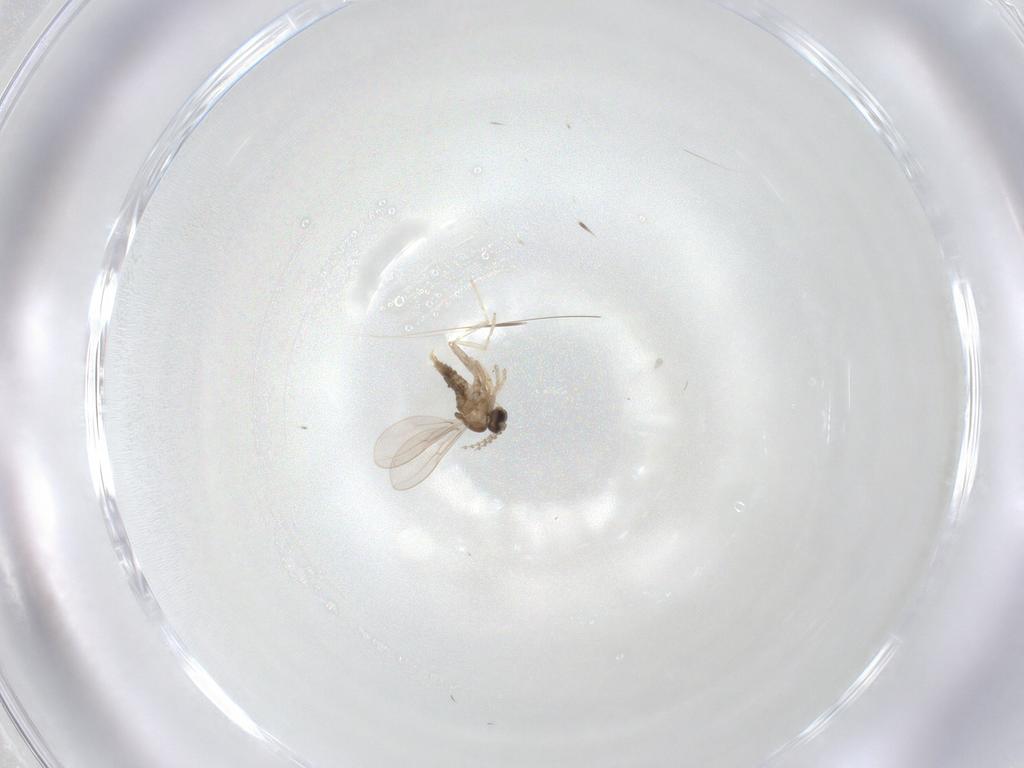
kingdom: Animalia
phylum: Arthropoda
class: Insecta
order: Diptera
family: Cecidomyiidae
